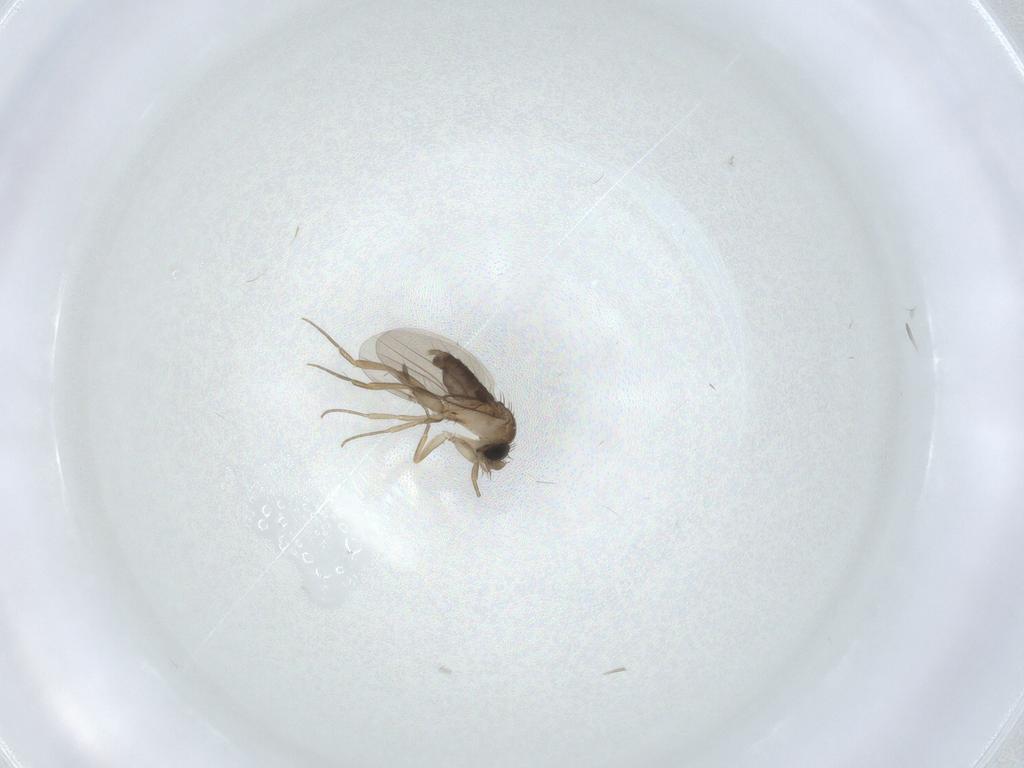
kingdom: Animalia
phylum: Arthropoda
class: Insecta
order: Diptera
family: Phoridae
